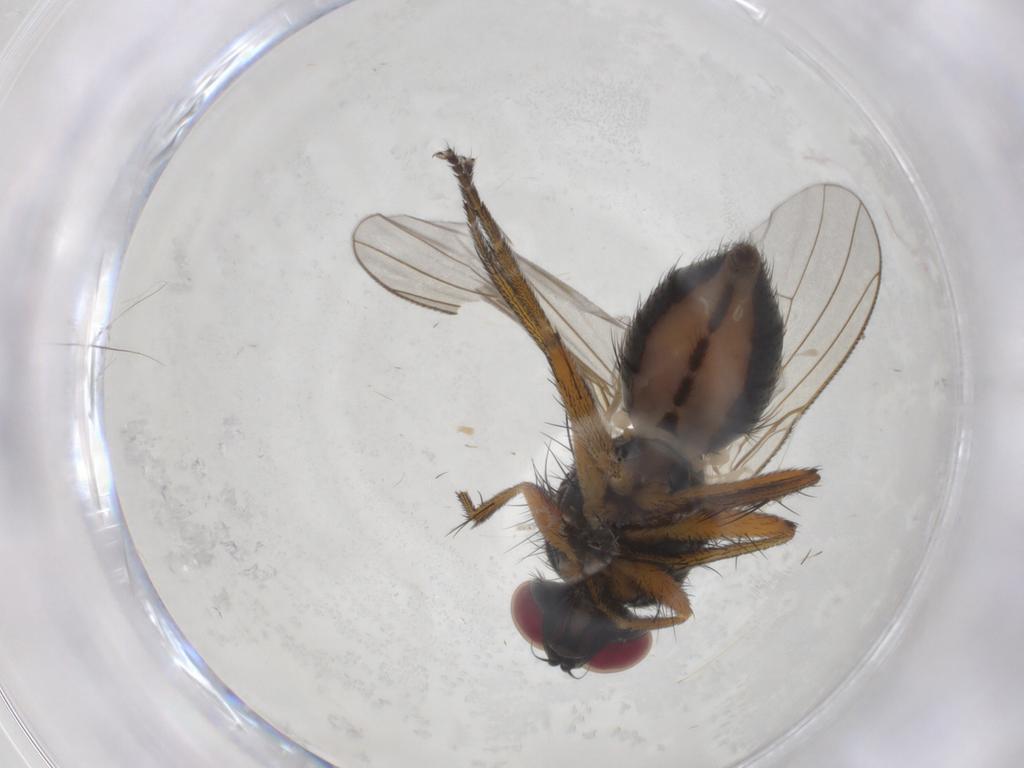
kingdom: Animalia
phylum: Arthropoda
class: Insecta
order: Diptera
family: Muscidae
